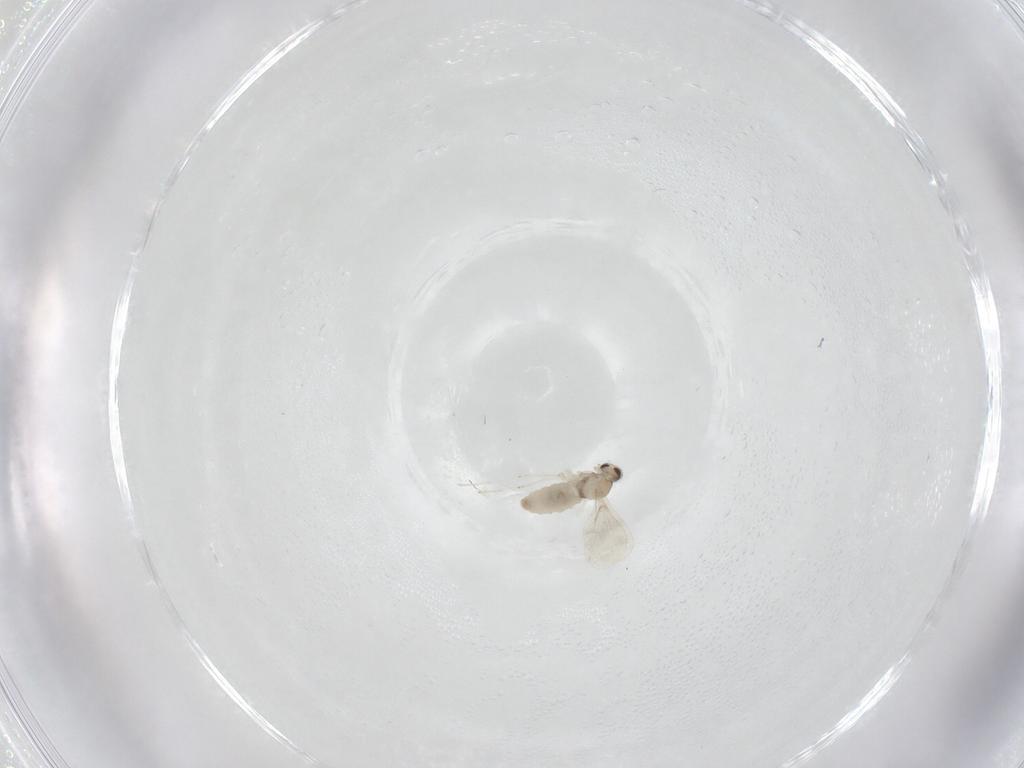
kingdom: Animalia
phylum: Arthropoda
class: Insecta
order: Diptera
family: Cecidomyiidae
